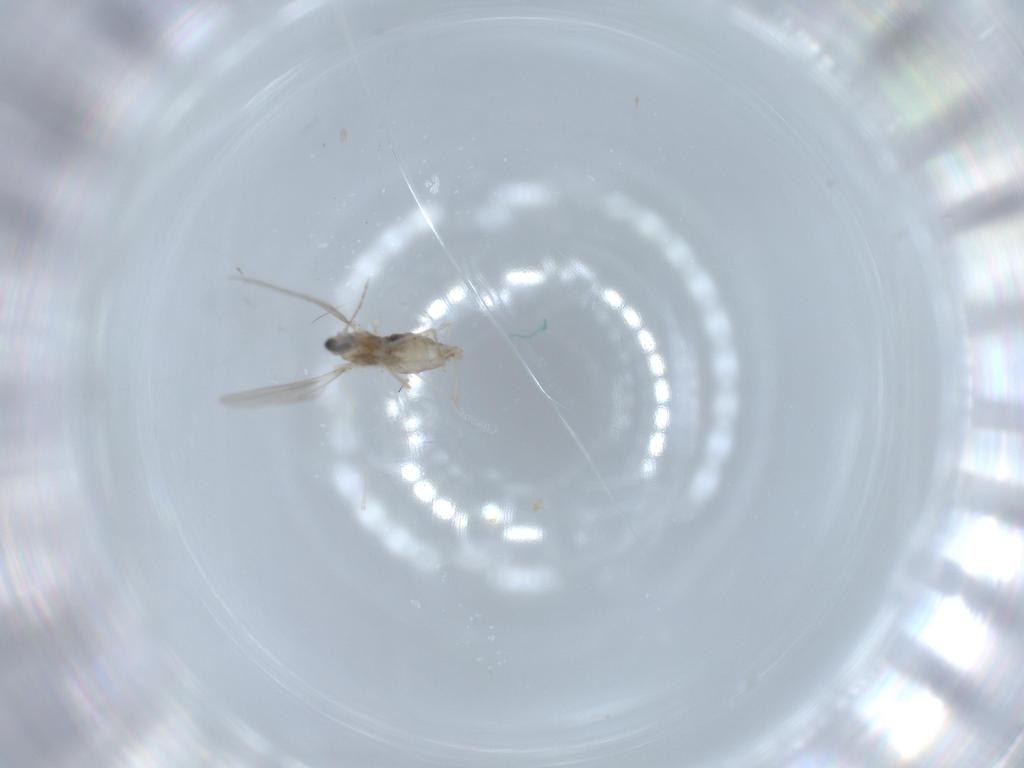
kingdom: Animalia
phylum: Arthropoda
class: Insecta
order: Diptera
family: Cecidomyiidae
